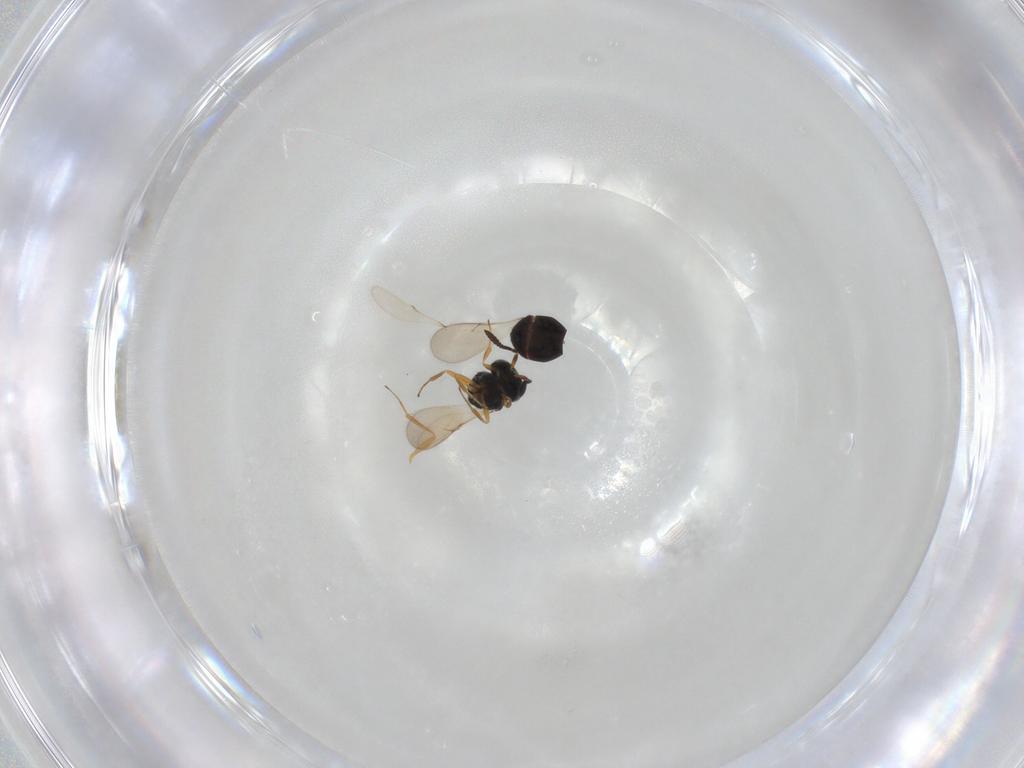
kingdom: Animalia
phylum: Arthropoda
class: Insecta
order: Hymenoptera
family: Scelionidae
